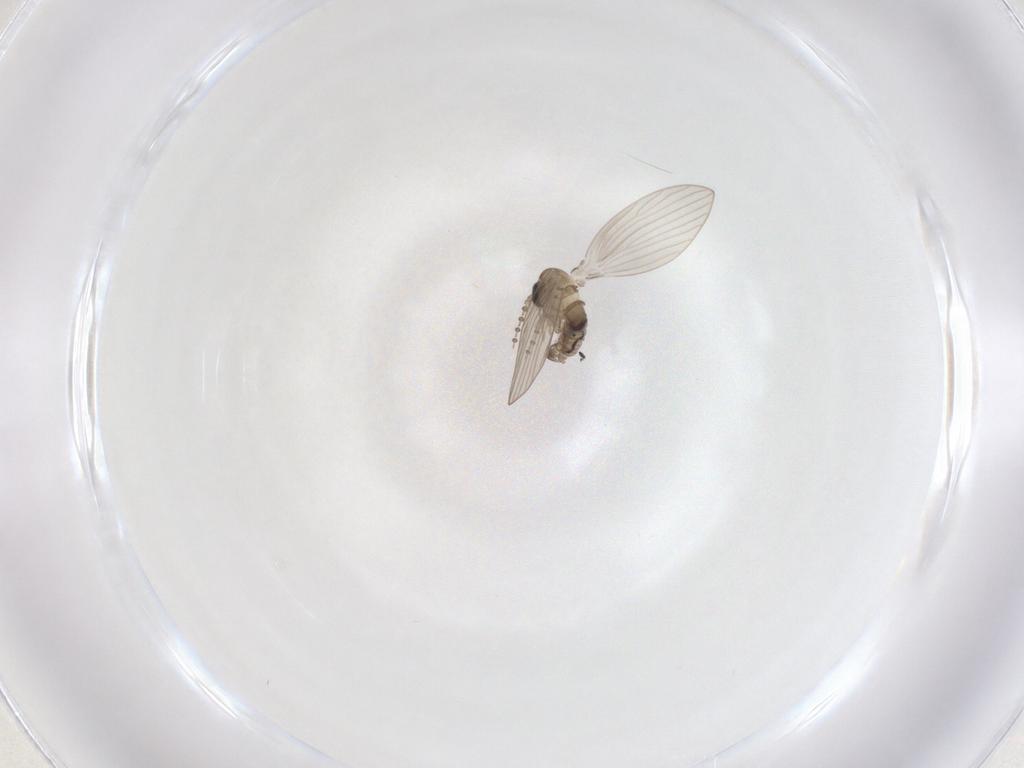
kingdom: Animalia
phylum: Arthropoda
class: Insecta
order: Diptera
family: Psychodidae
